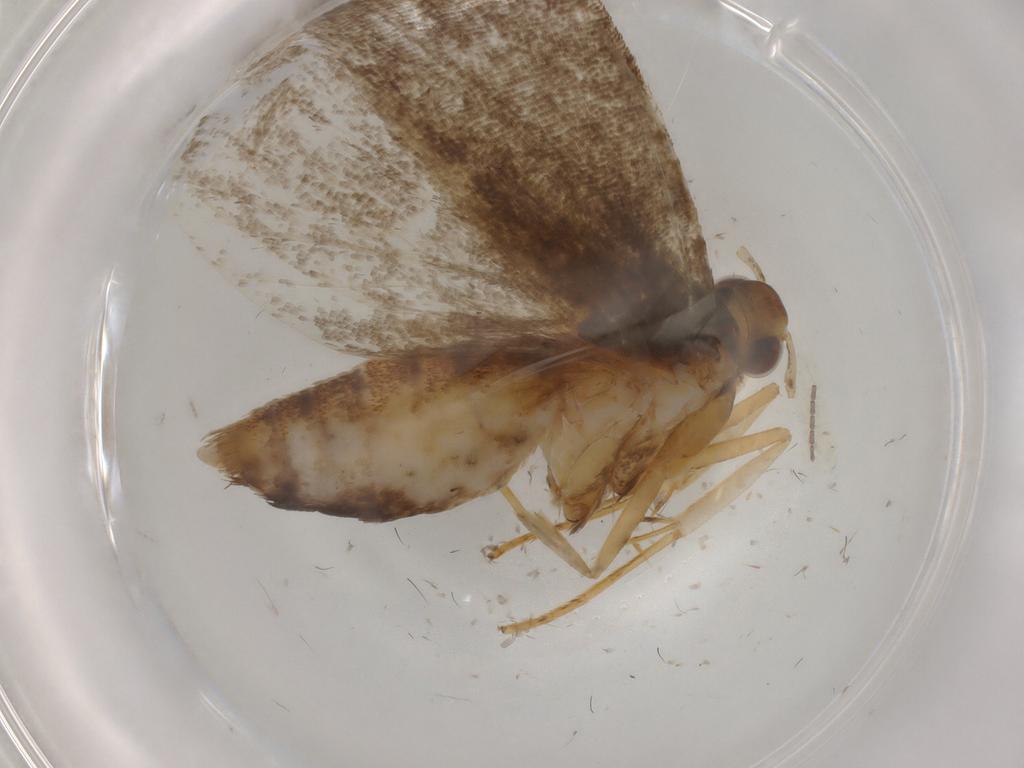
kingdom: Animalia
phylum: Arthropoda
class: Insecta
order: Lepidoptera
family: Lecithoceridae
